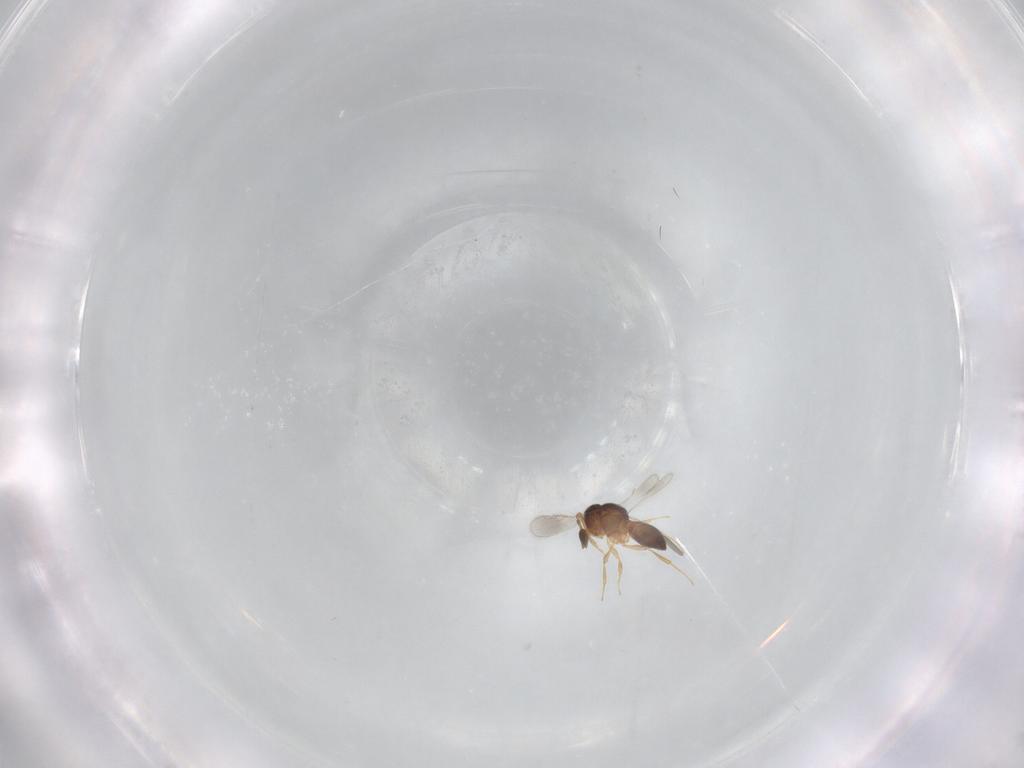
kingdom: Animalia
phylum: Arthropoda
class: Insecta
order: Hymenoptera
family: Scelionidae
